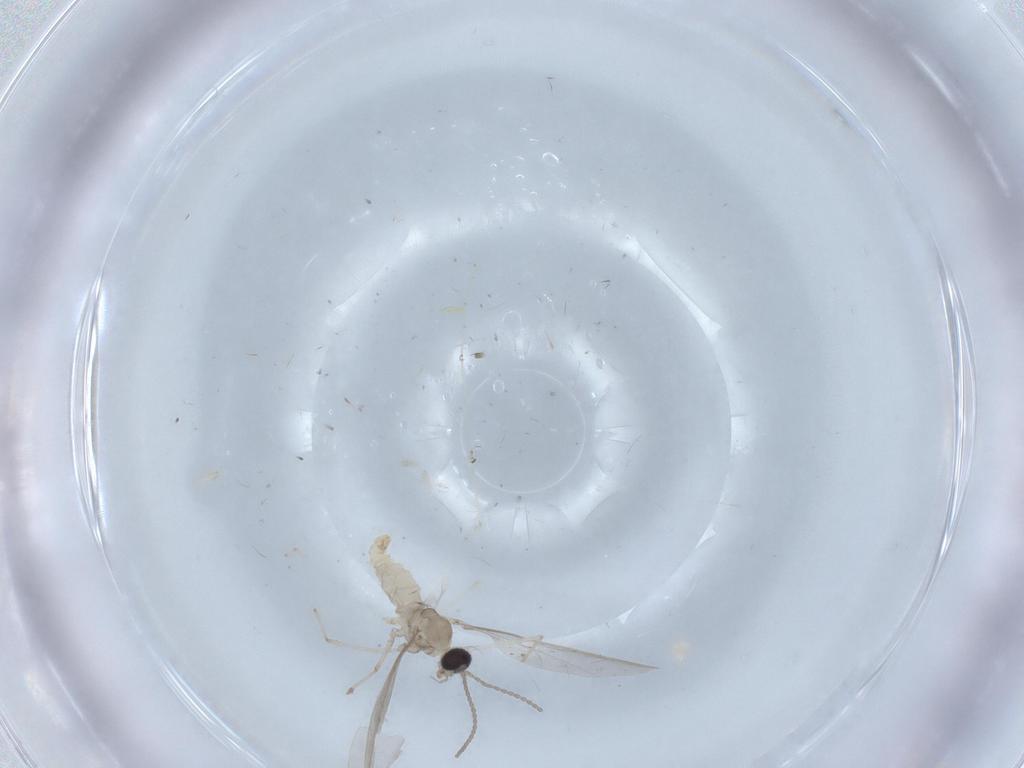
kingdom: Animalia
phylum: Arthropoda
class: Insecta
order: Diptera
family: Cecidomyiidae
